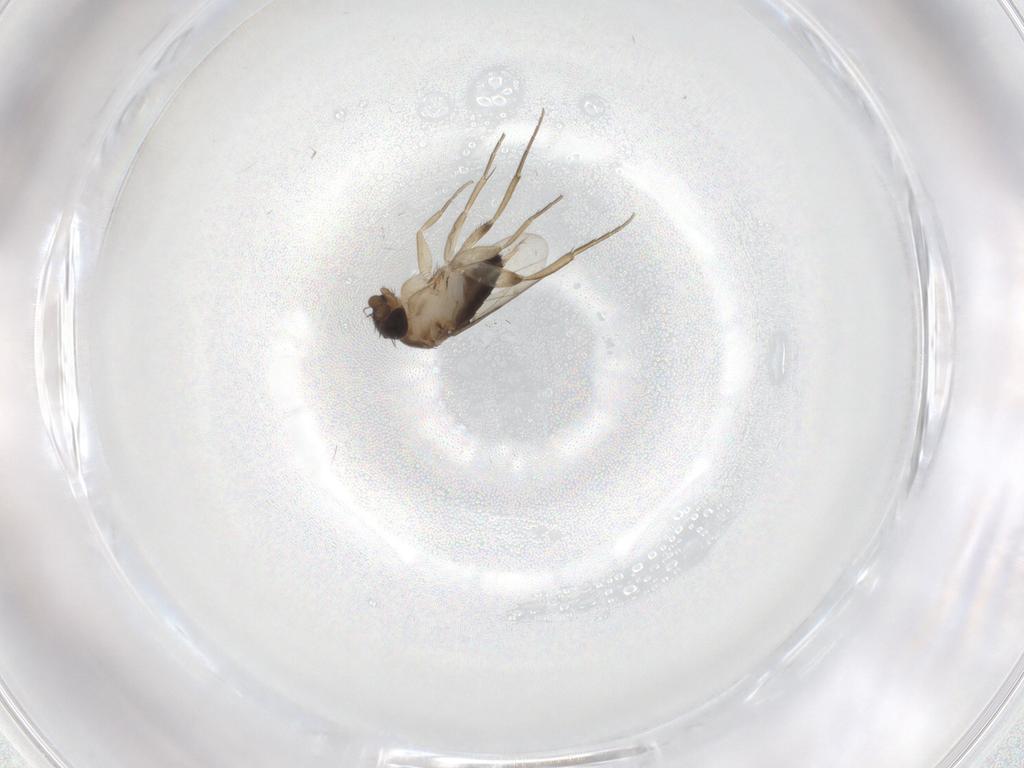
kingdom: Animalia
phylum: Arthropoda
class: Insecta
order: Diptera
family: Phoridae
